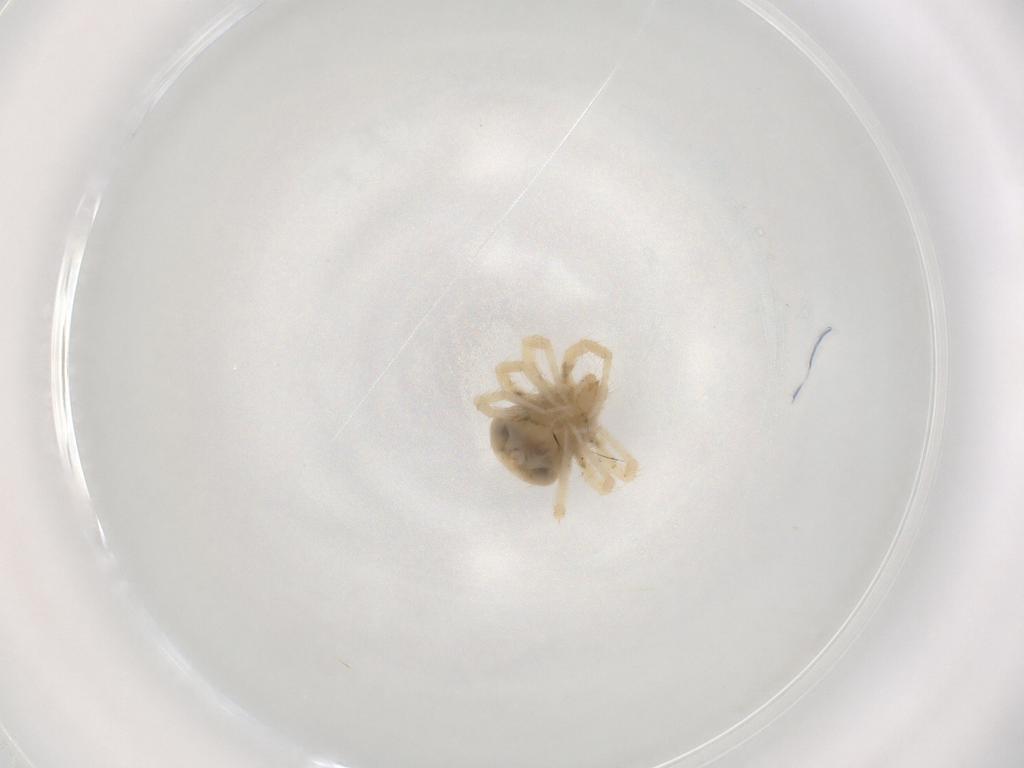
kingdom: Animalia
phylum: Arthropoda
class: Arachnida
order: Trombidiformes
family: Anystidae
